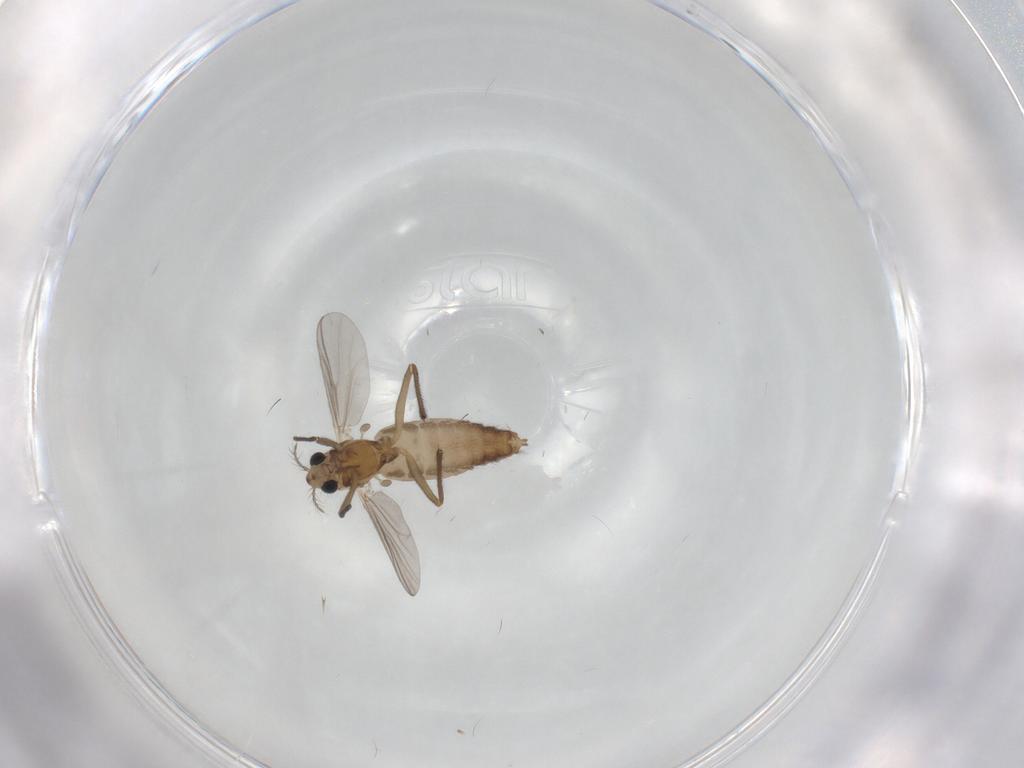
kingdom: Animalia
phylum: Arthropoda
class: Insecta
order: Diptera
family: Chironomidae
